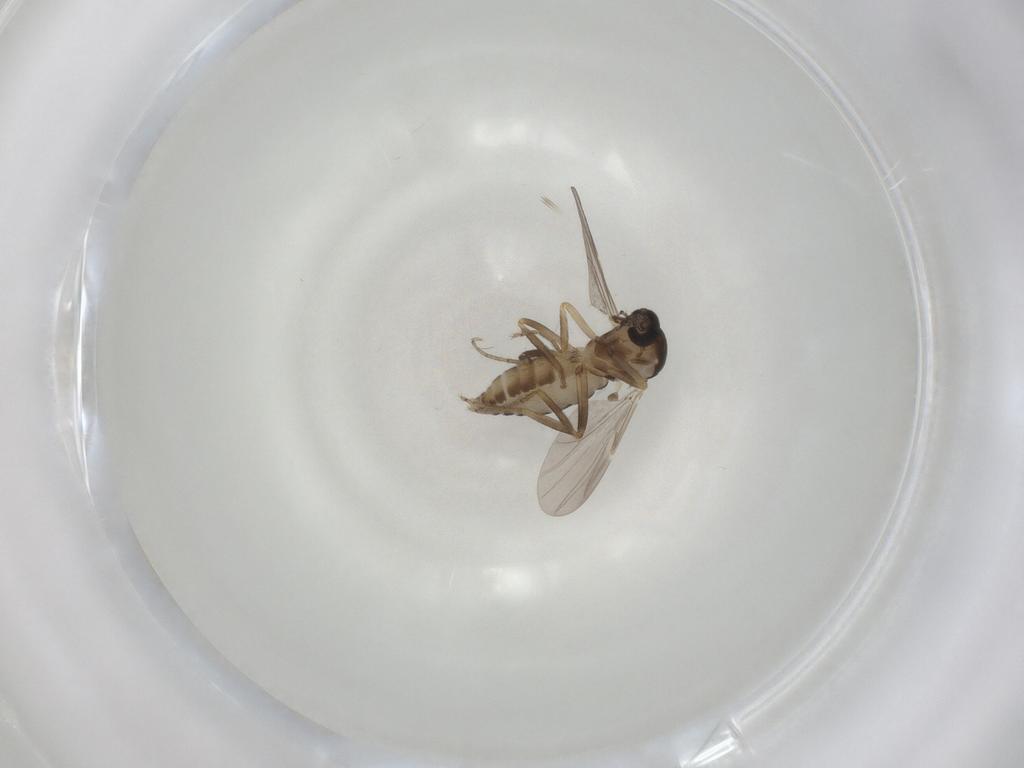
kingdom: Animalia
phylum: Arthropoda
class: Insecta
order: Diptera
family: Ceratopogonidae
